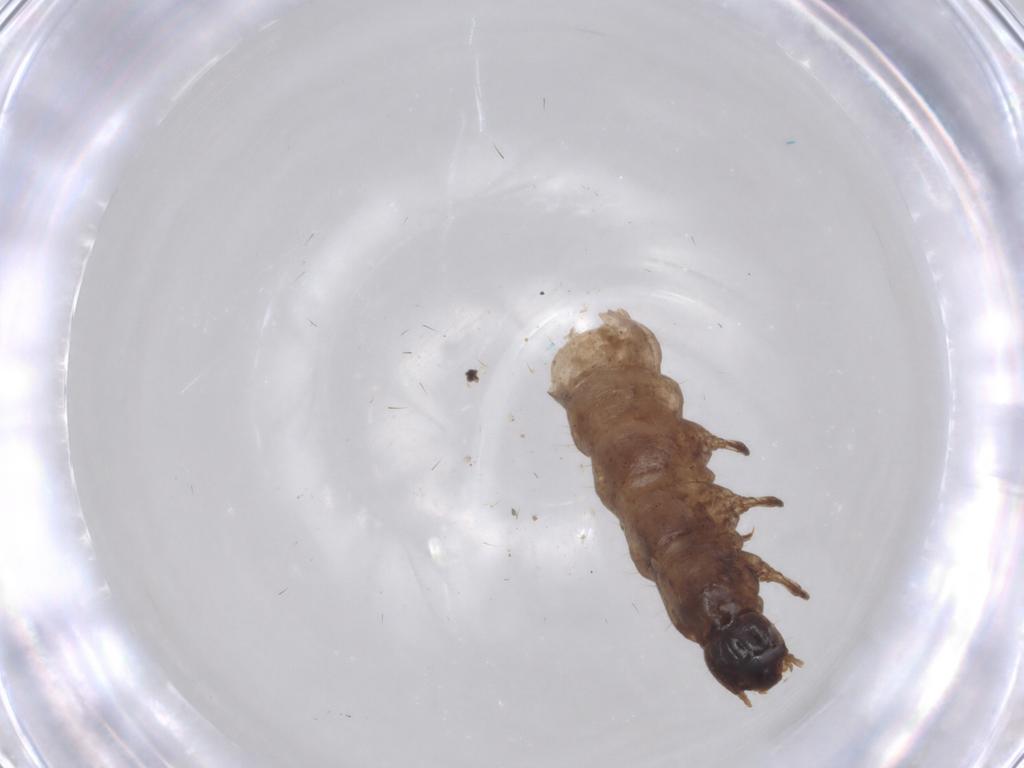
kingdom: Animalia
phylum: Arthropoda
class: Insecta
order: Coleoptera
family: Anthicidae
